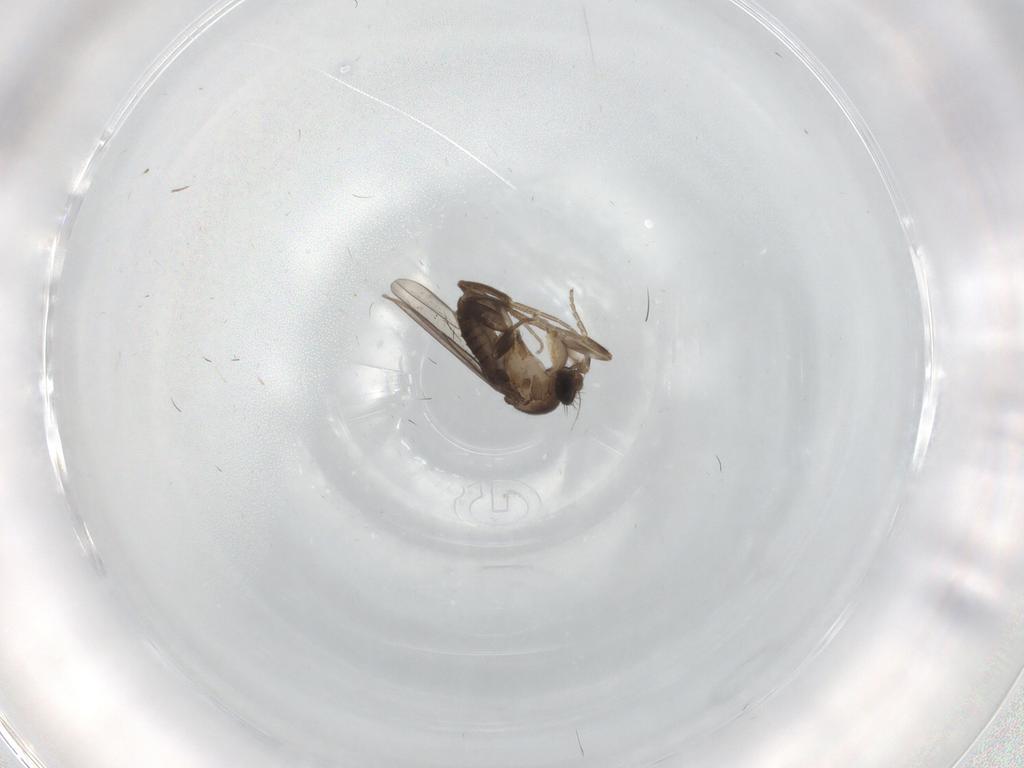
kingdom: Animalia
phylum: Arthropoda
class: Insecta
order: Diptera
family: Phoridae
